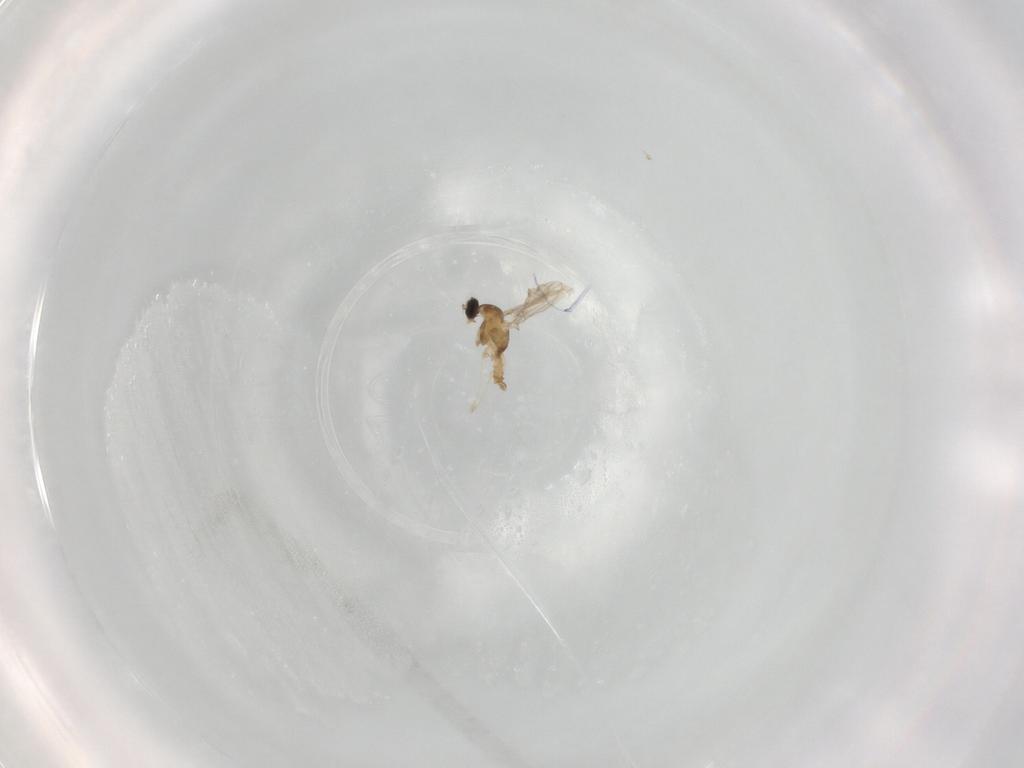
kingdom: Animalia
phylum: Arthropoda
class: Insecta
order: Diptera
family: Cecidomyiidae
